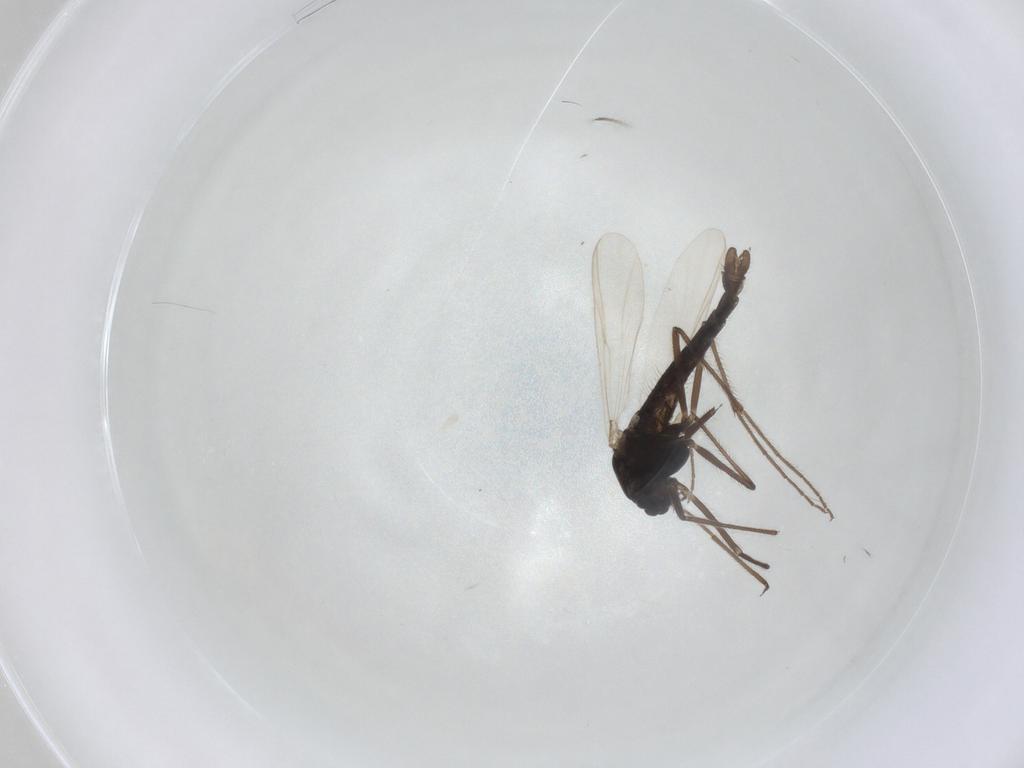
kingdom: Animalia
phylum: Arthropoda
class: Insecta
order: Diptera
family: Chironomidae
